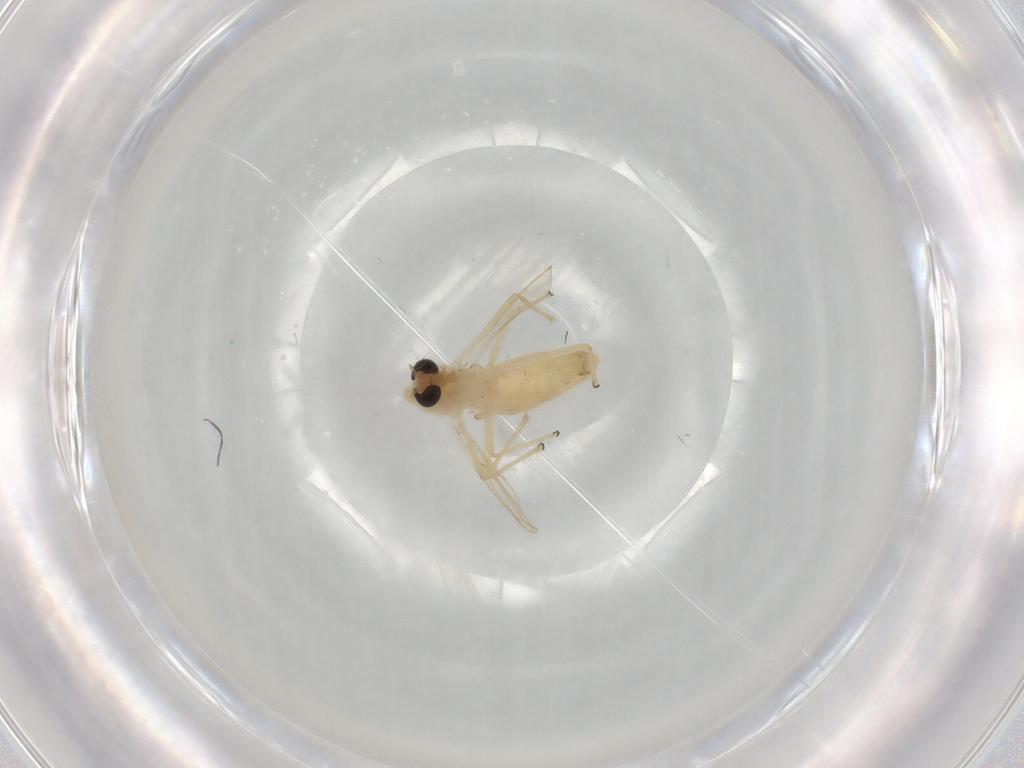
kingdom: Animalia
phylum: Arthropoda
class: Insecta
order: Diptera
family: Chironomidae
